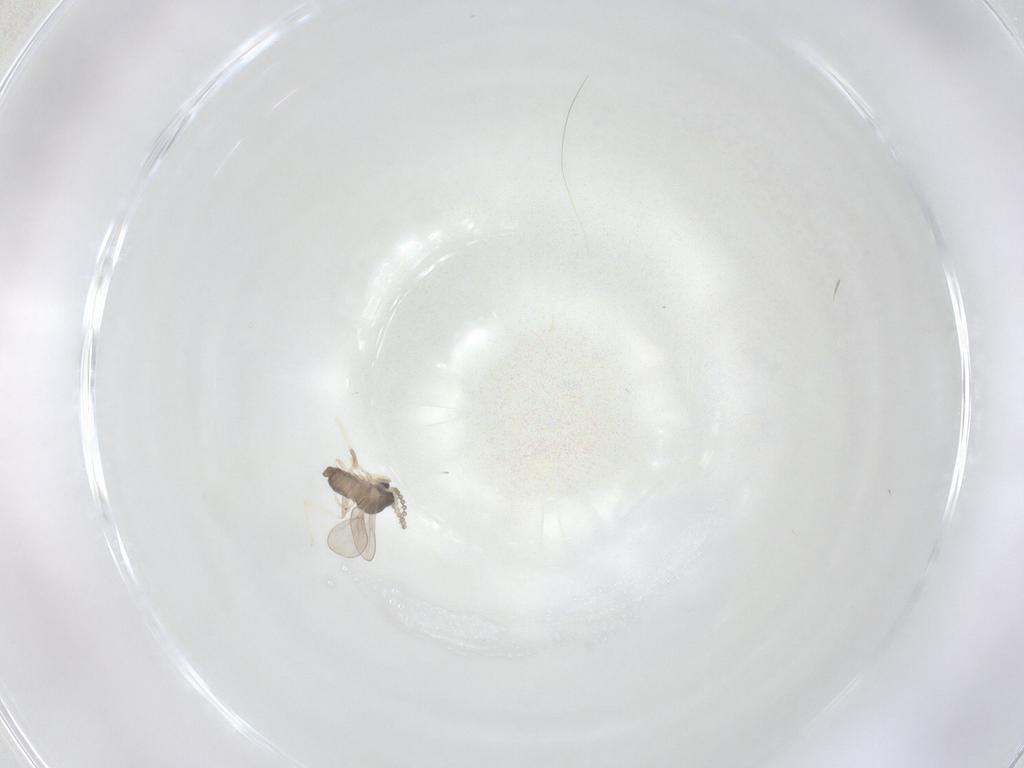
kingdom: Animalia
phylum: Arthropoda
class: Insecta
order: Diptera
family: Cecidomyiidae
